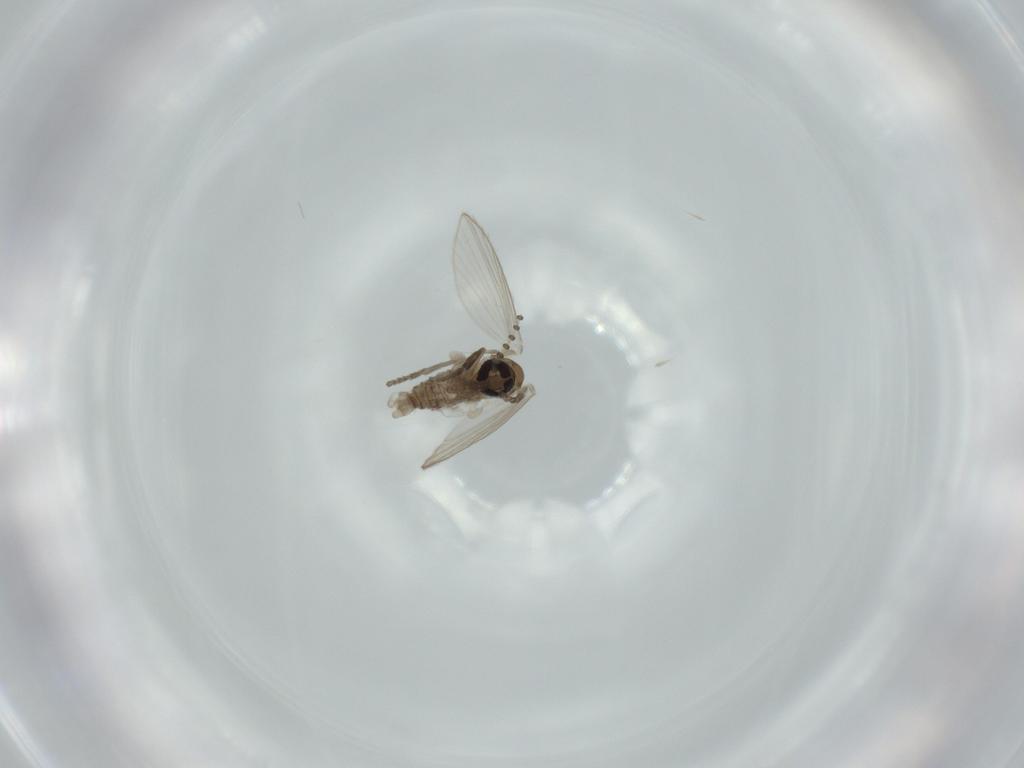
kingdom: Animalia
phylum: Arthropoda
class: Insecta
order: Diptera
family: Psychodidae
